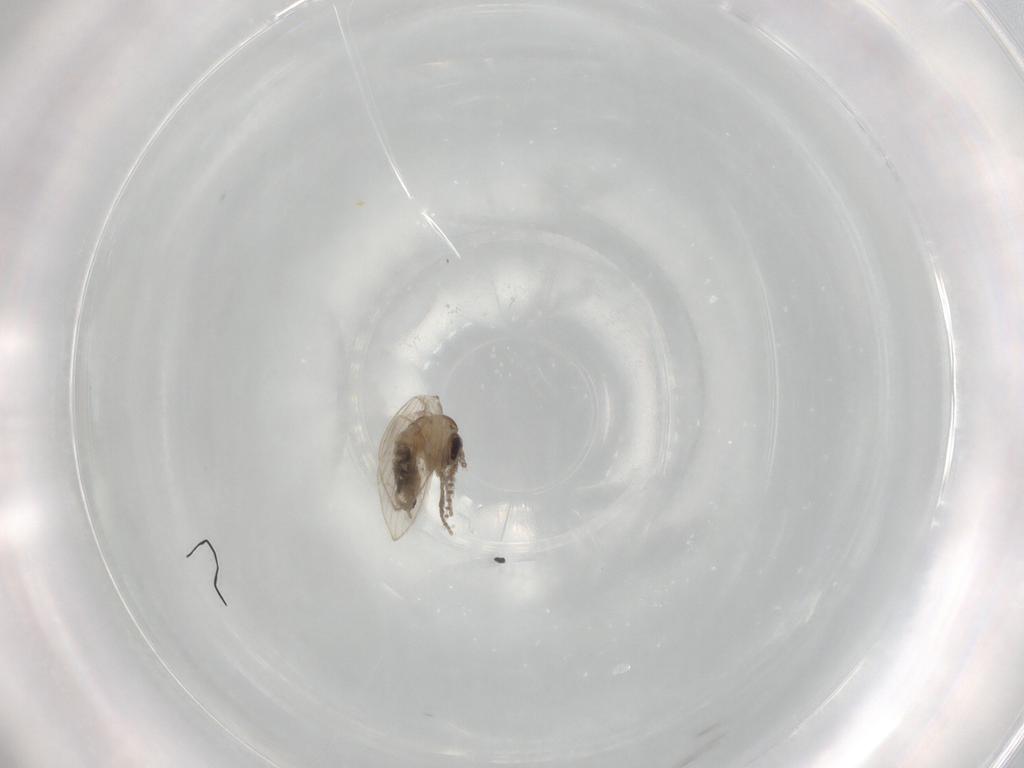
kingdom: Animalia
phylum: Arthropoda
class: Insecta
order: Diptera
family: Psychodidae
